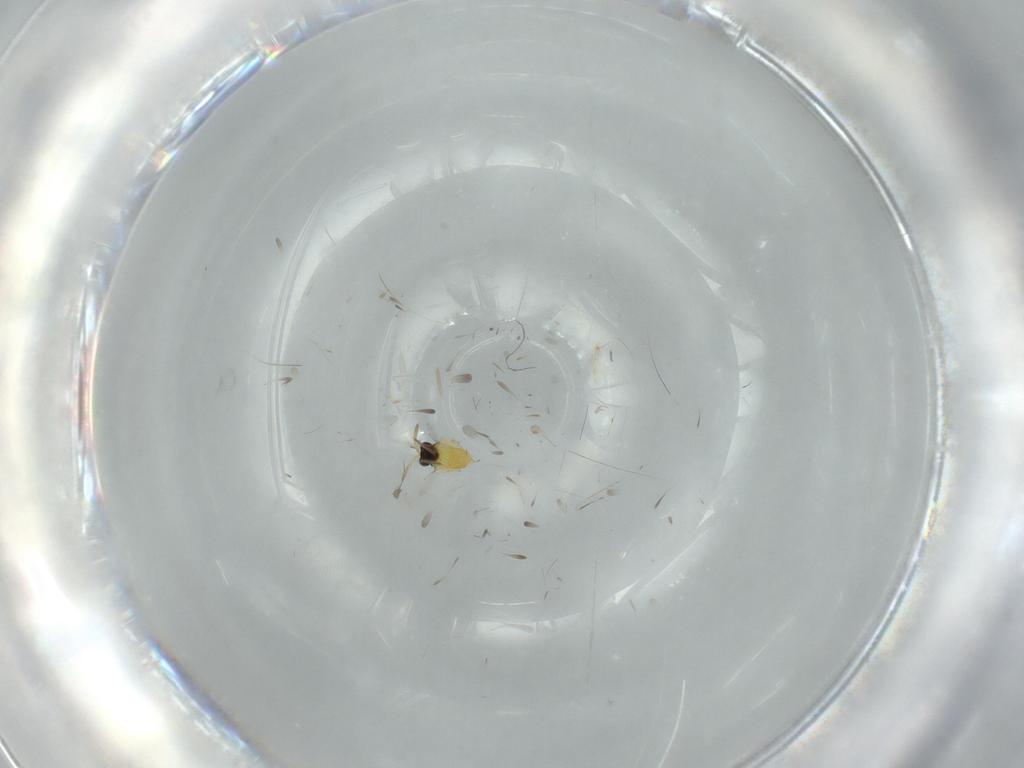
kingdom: Animalia
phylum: Arthropoda
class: Insecta
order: Hymenoptera
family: Aphelinidae
